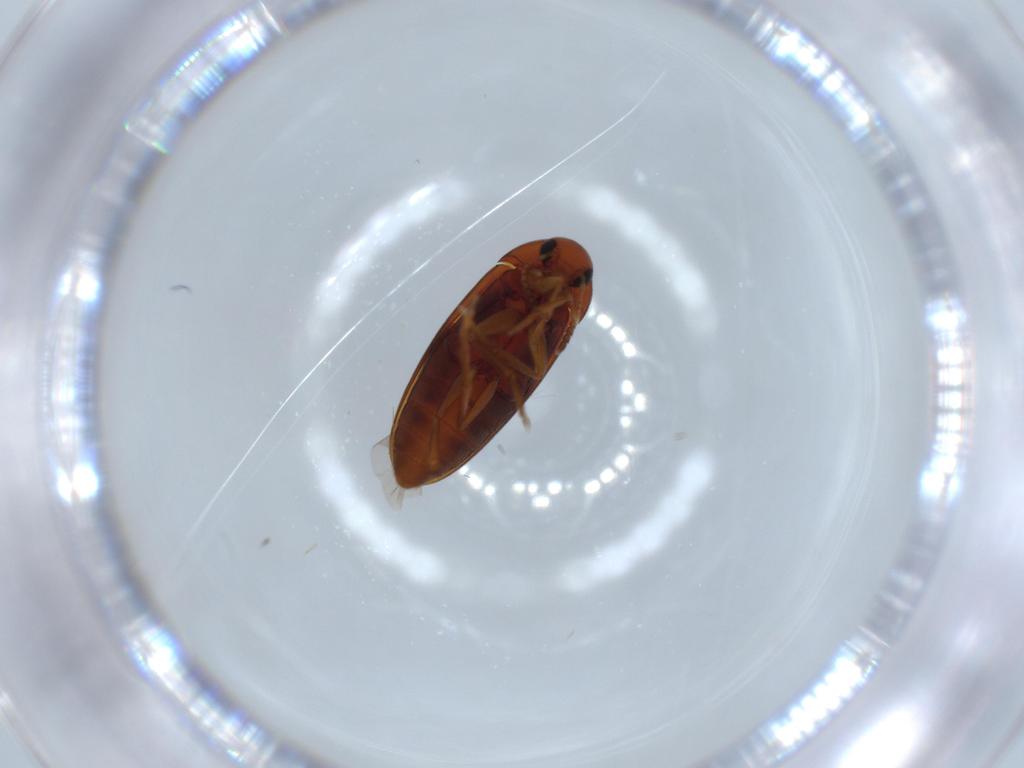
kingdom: Animalia
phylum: Arthropoda
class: Insecta
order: Coleoptera
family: Scraptiidae
